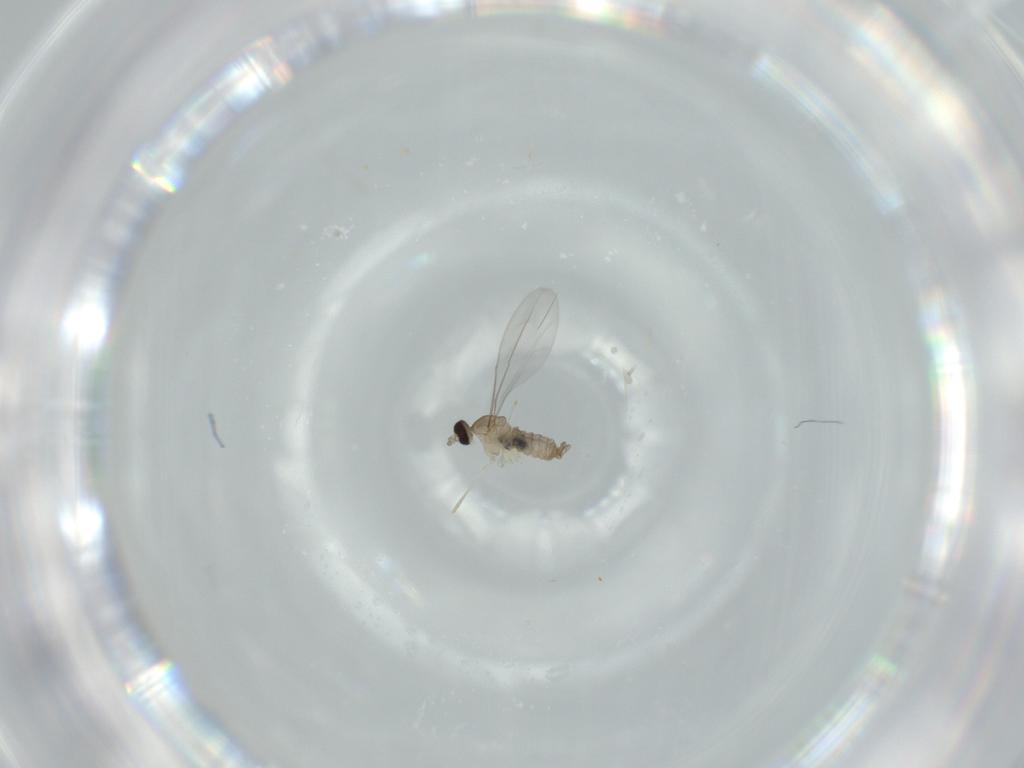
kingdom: Animalia
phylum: Arthropoda
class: Insecta
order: Diptera
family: Cecidomyiidae
